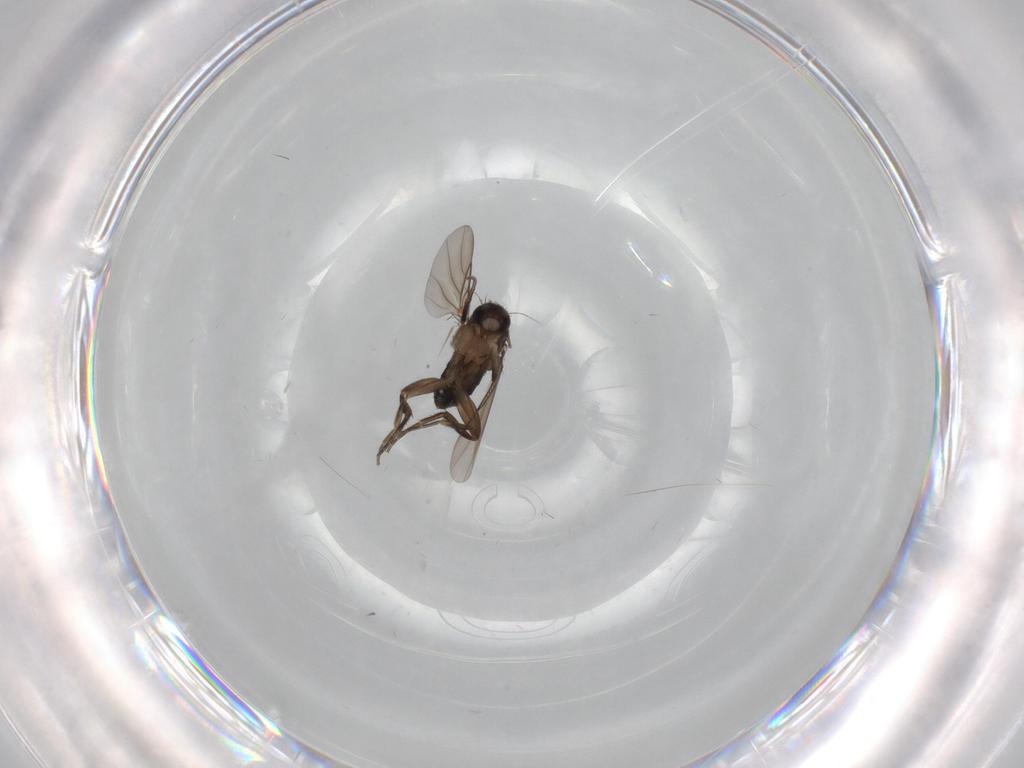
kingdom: Animalia
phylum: Arthropoda
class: Insecta
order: Diptera
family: Phoridae
